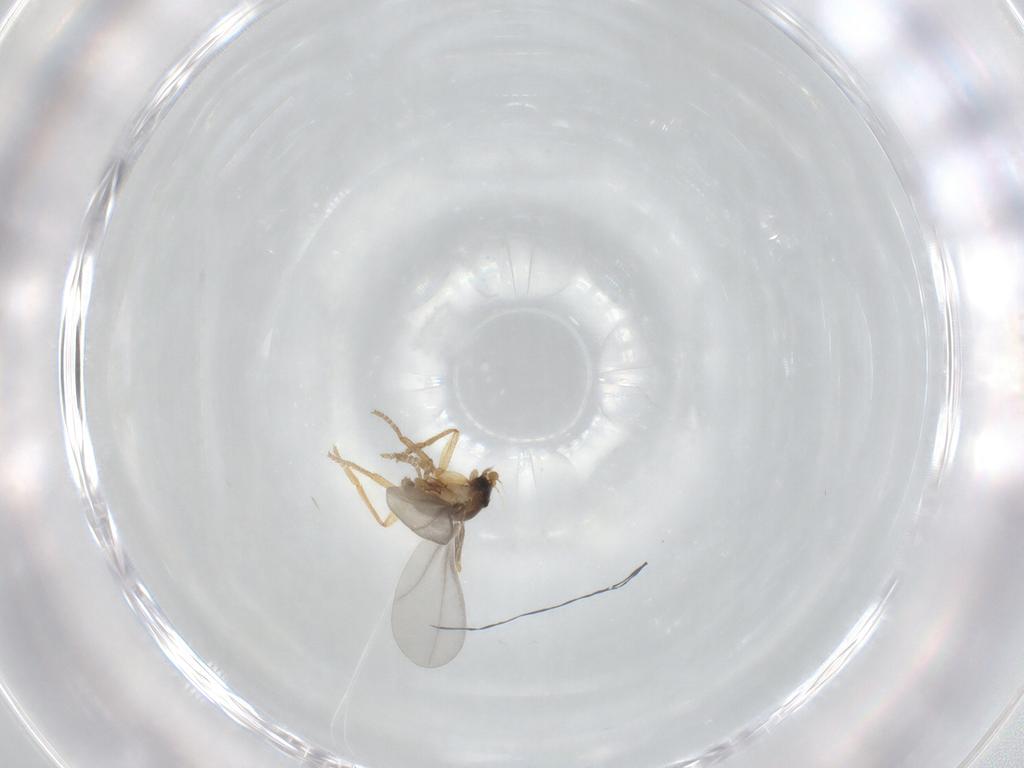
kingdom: Animalia
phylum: Arthropoda
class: Insecta
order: Diptera
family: Phoridae
